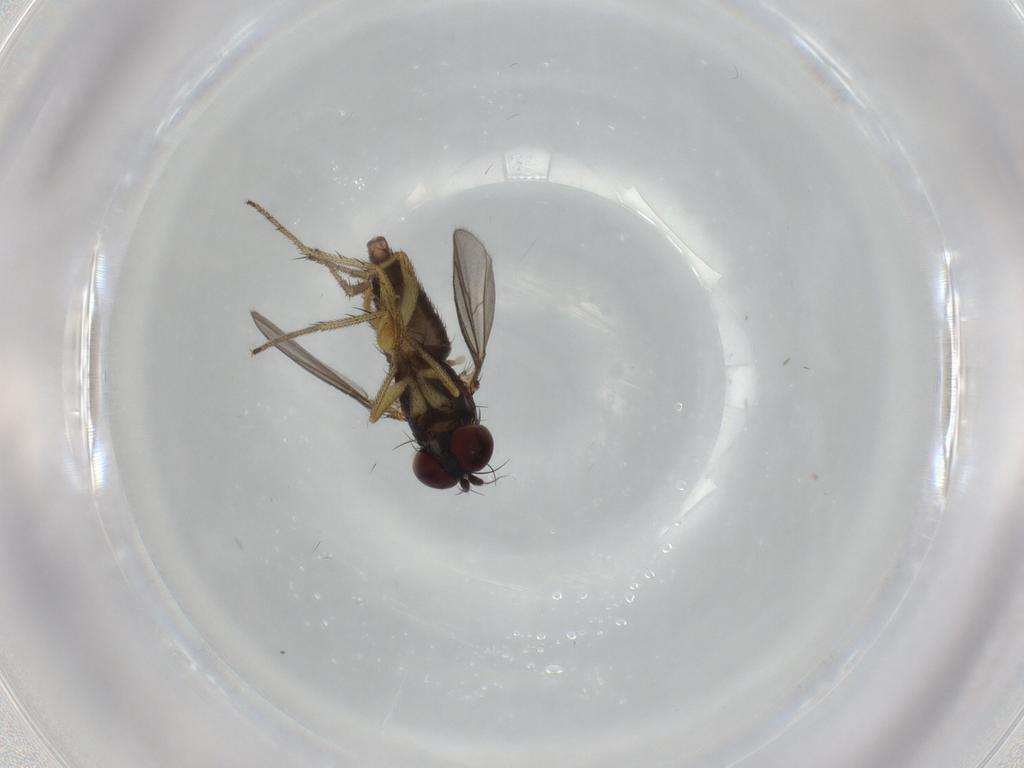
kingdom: Animalia
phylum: Arthropoda
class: Insecta
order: Diptera
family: Dolichopodidae
